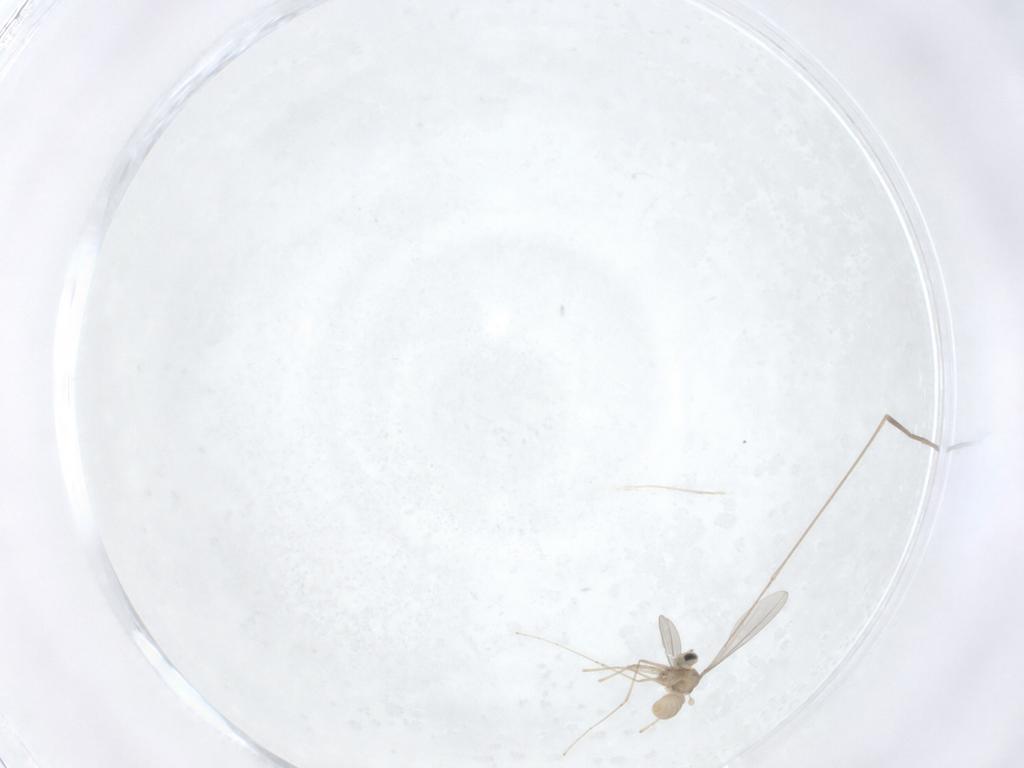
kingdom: Animalia
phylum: Arthropoda
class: Insecta
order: Diptera
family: Limoniidae
